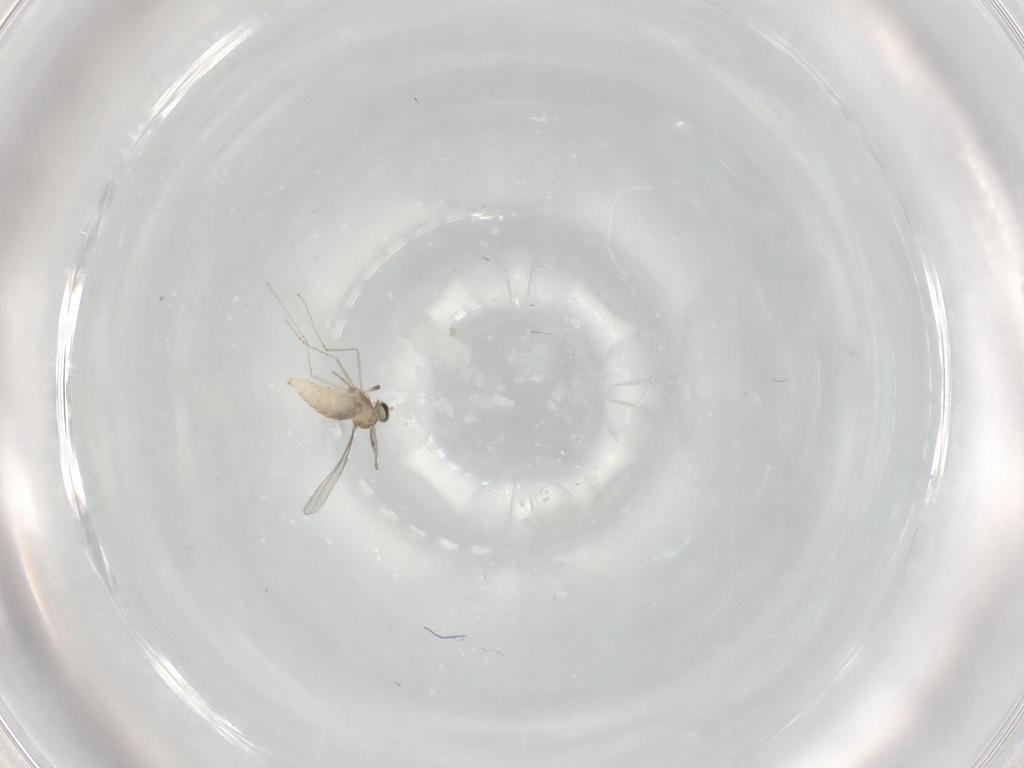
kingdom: Animalia
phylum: Arthropoda
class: Insecta
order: Diptera
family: Cecidomyiidae
